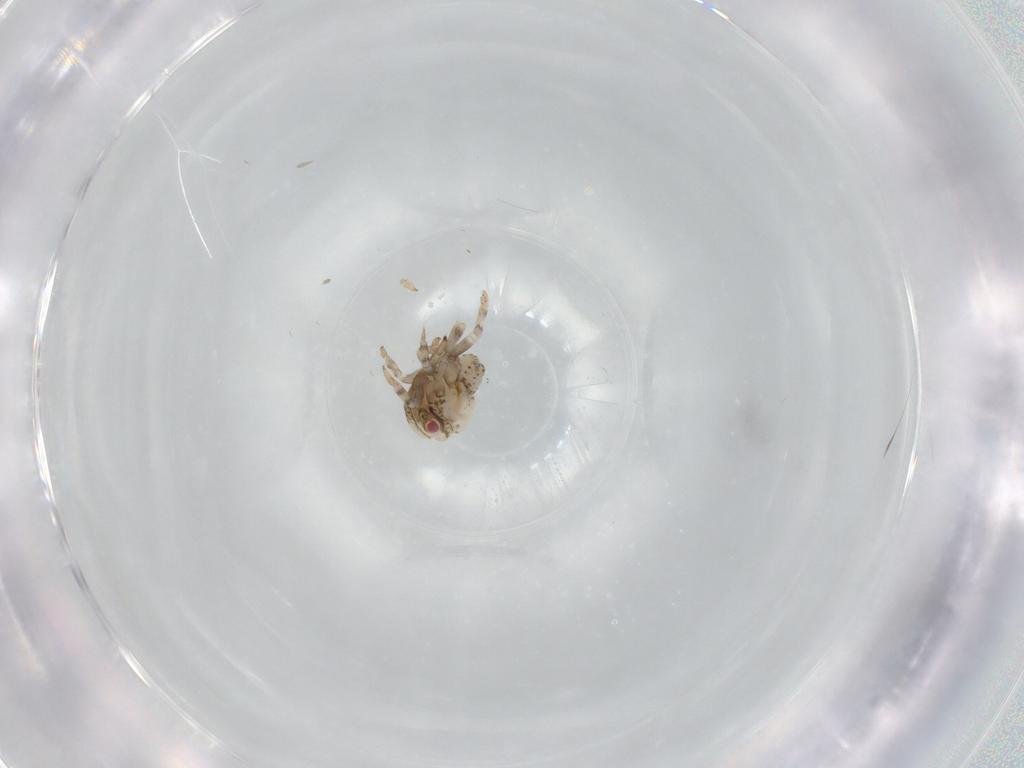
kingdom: Animalia
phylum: Arthropoda
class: Insecta
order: Hemiptera
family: Acanaloniidae
